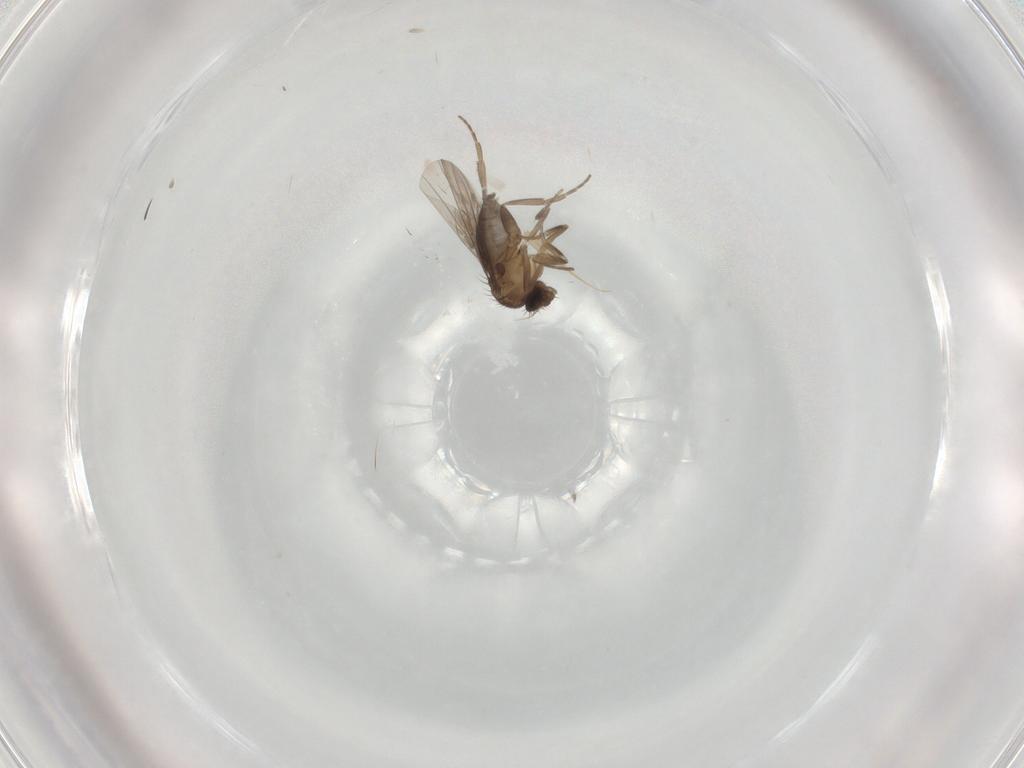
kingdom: Animalia
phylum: Arthropoda
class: Insecta
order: Diptera
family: Phoridae
